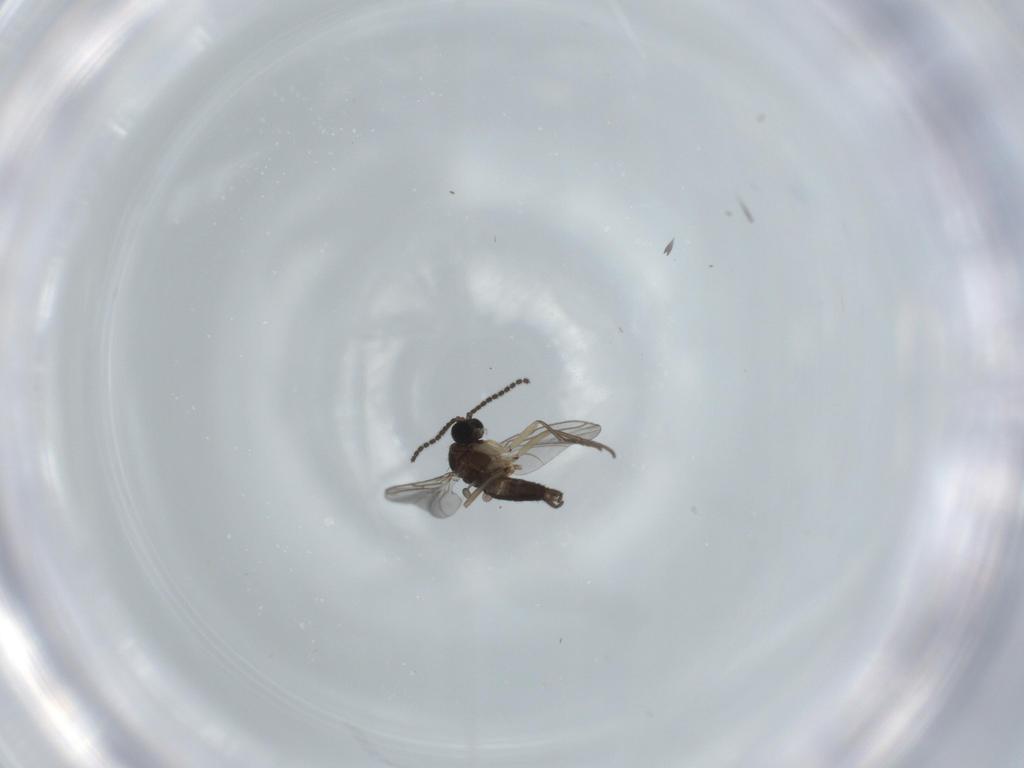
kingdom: Animalia
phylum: Arthropoda
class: Insecta
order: Diptera
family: Sciaridae
